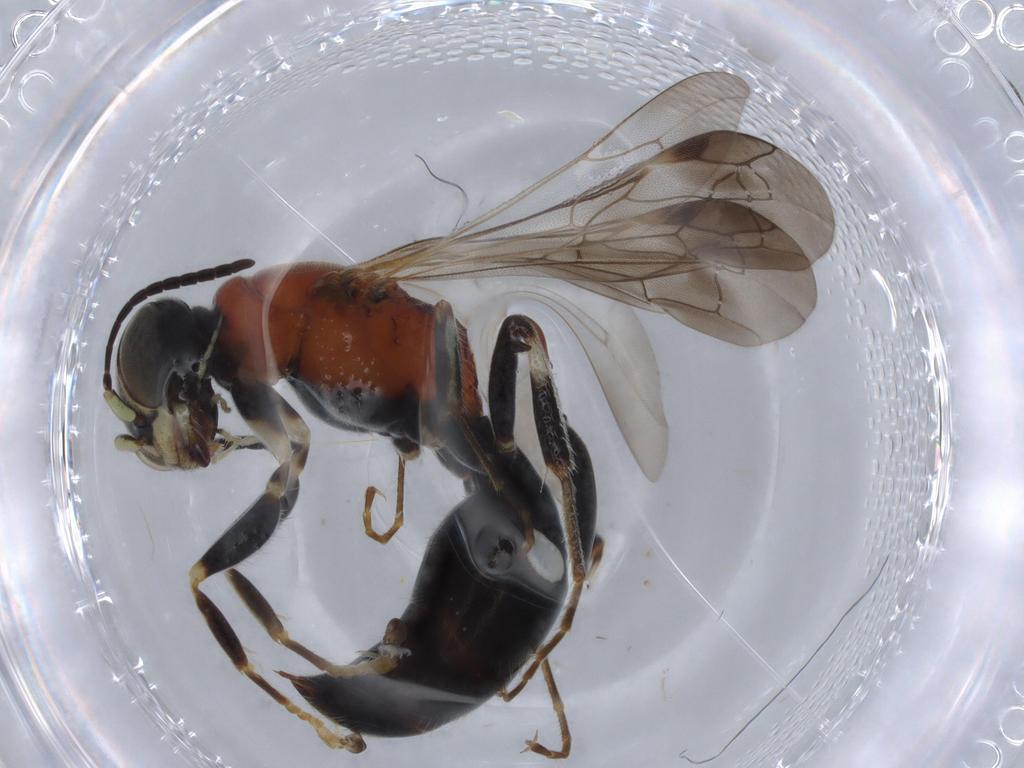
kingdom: Animalia
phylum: Arthropoda
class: Insecta
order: Hymenoptera
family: Bembicidae
